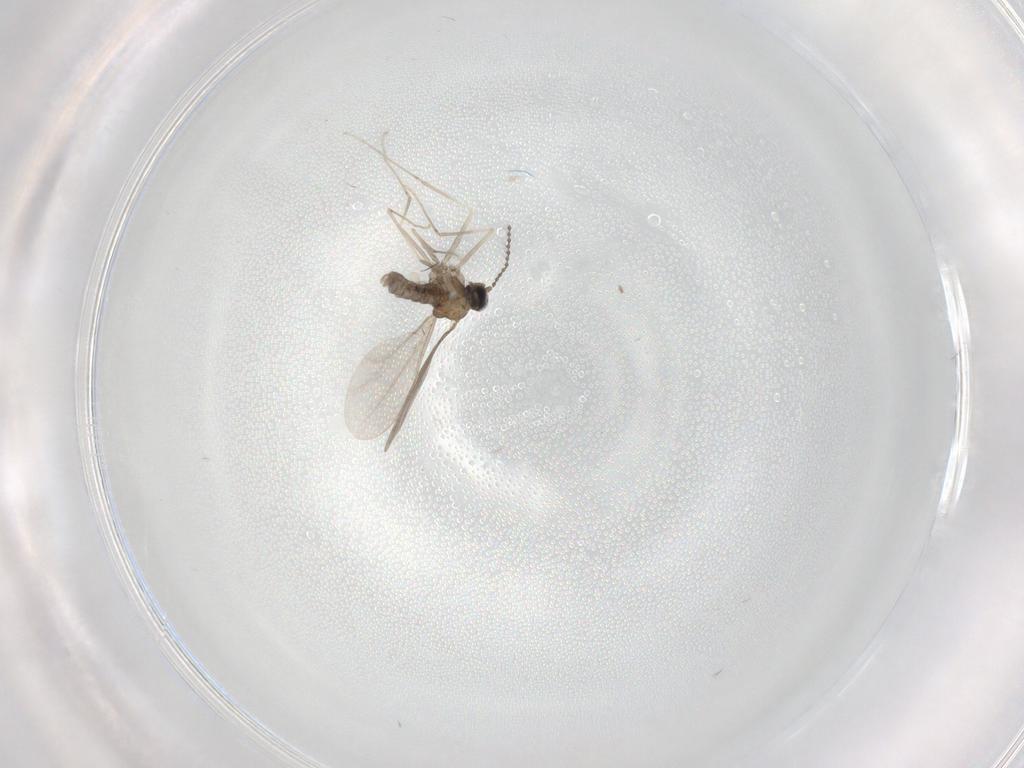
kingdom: Animalia
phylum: Arthropoda
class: Insecta
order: Diptera
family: Cecidomyiidae
